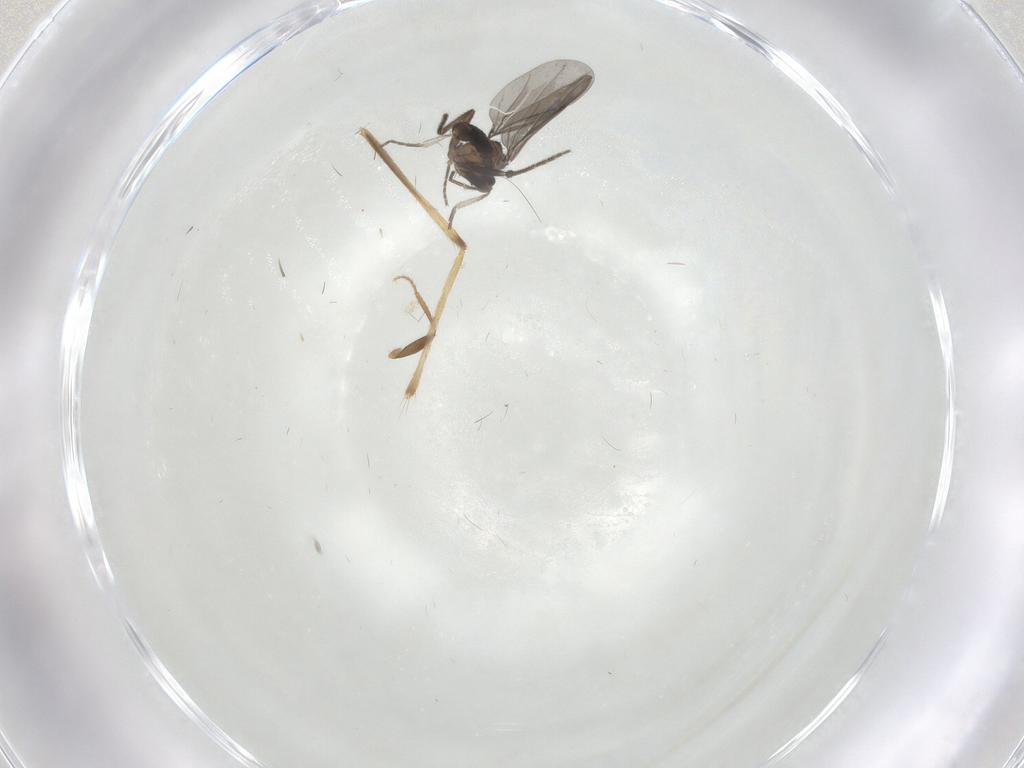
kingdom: Animalia
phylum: Arthropoda
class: Insecta
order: Diptera
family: Phoridae
